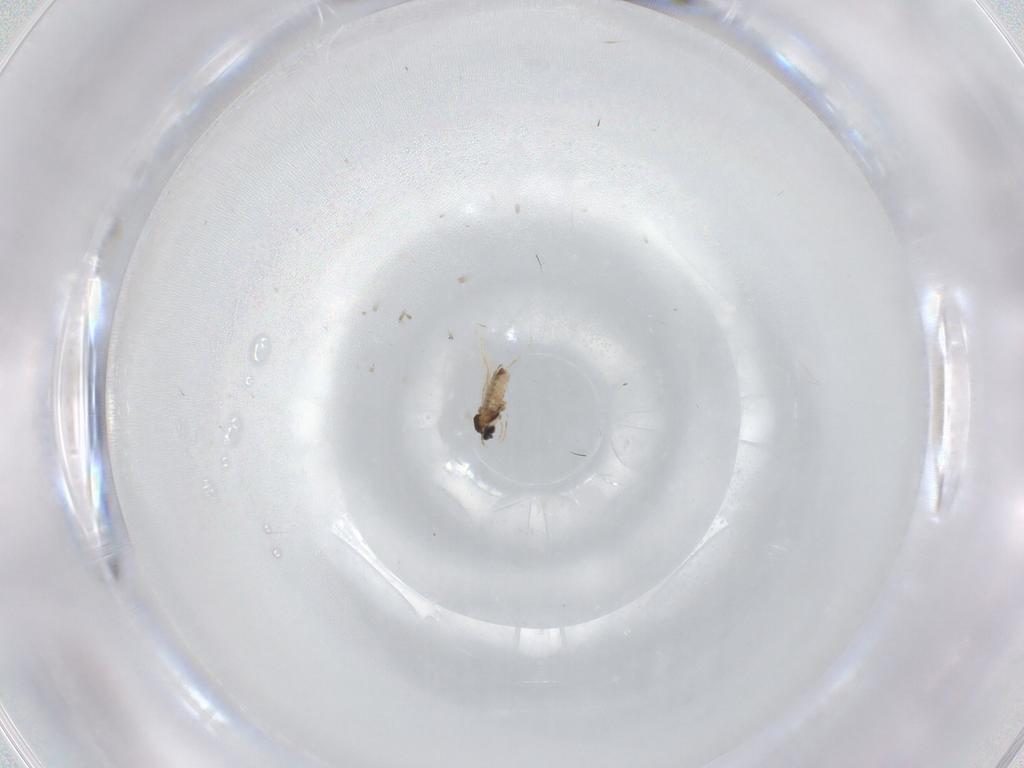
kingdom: Animalia
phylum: Arthropoda
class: Insecta
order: Diptera
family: Cecidomyiidae
